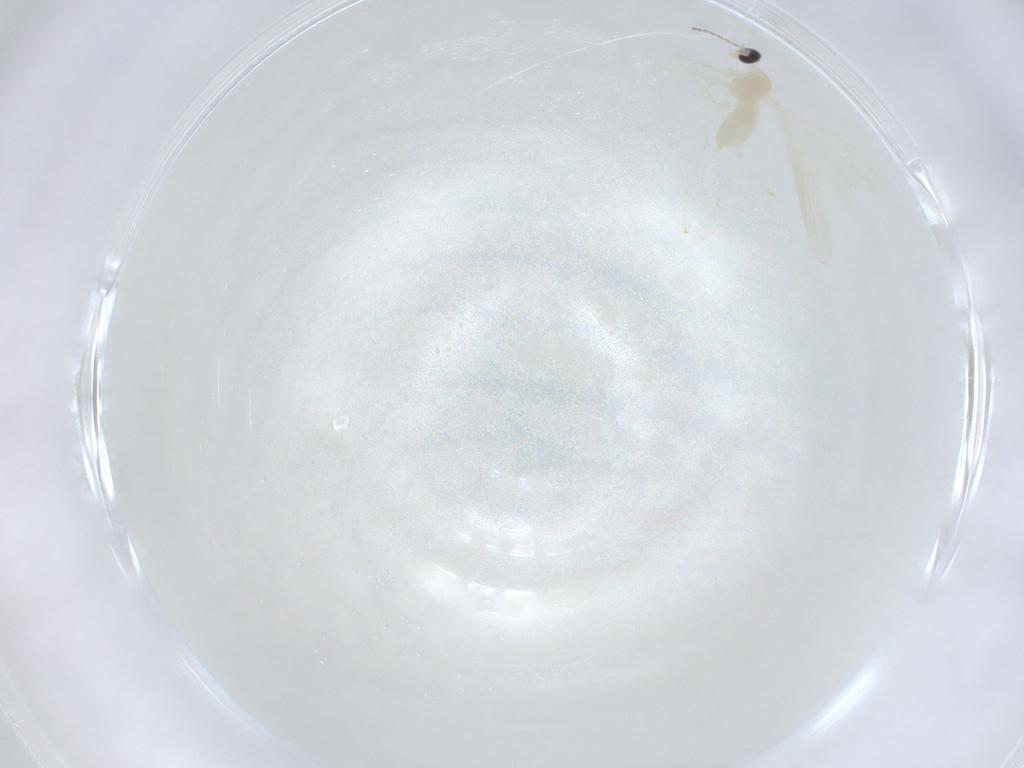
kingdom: Animalia
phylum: Arthropoda
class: Insecta
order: Diptera
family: Cecidomyiidae
